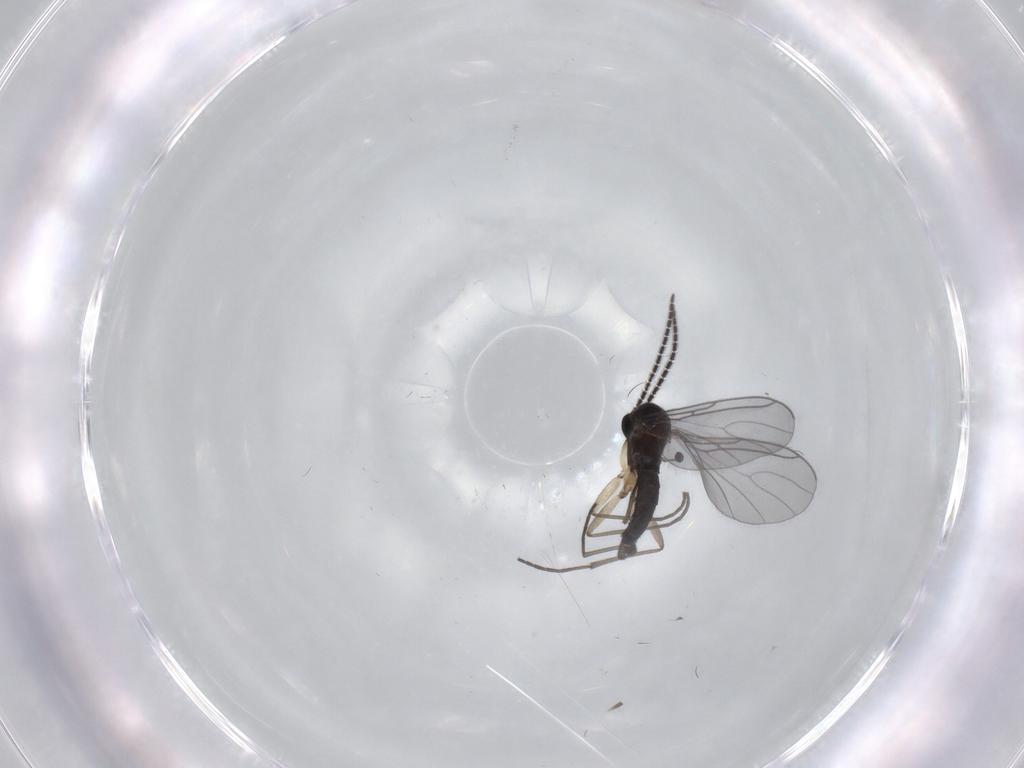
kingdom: Animalia
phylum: Arthropoda
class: Insecta
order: Diptera
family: Sciaridae
